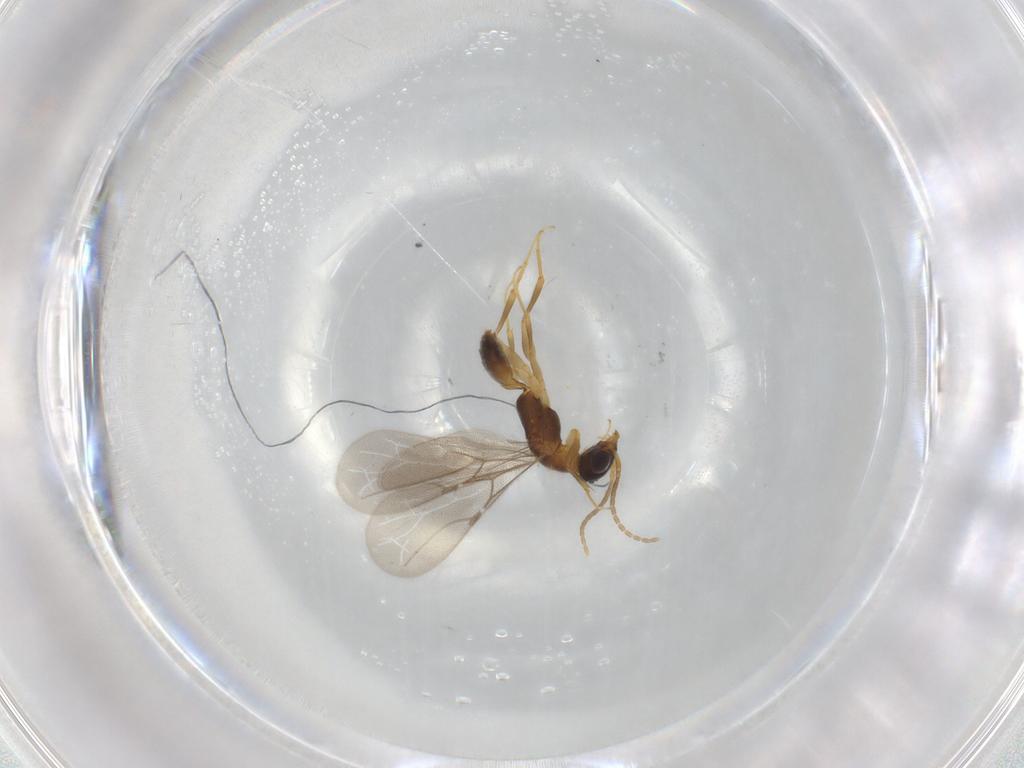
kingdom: Animalia
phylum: Arthropoda
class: Insecta
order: Hymenoptera
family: Bethylidae
